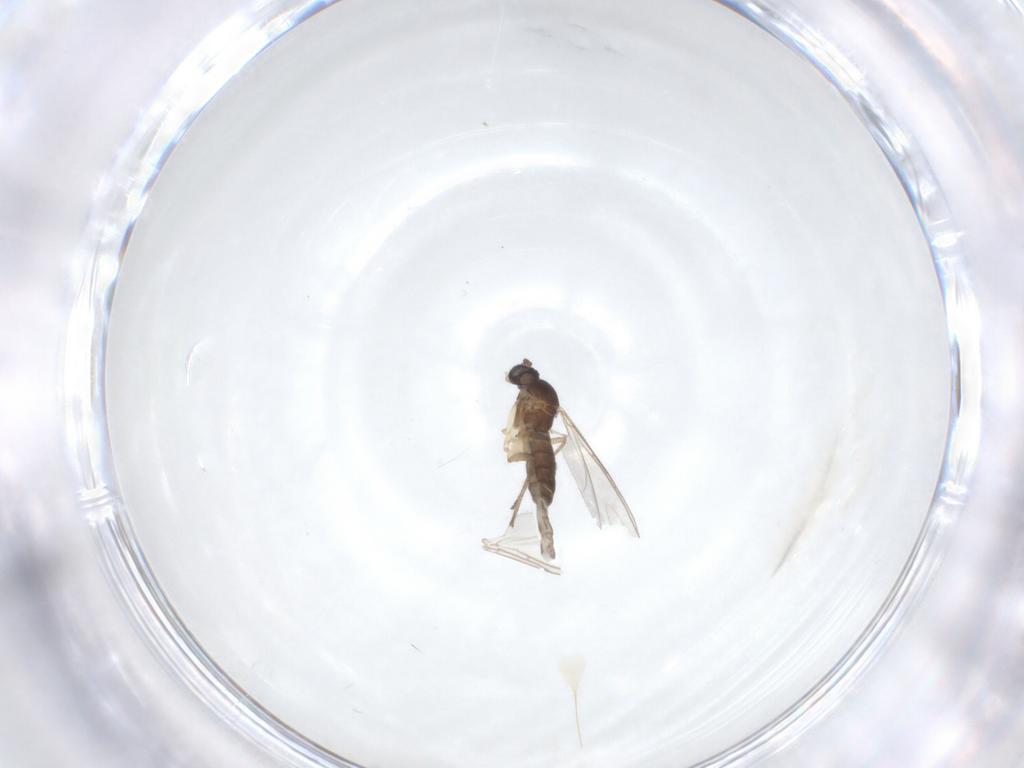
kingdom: Animalia
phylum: Arthropoda
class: Insecta
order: Diptera
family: Sciaridae
